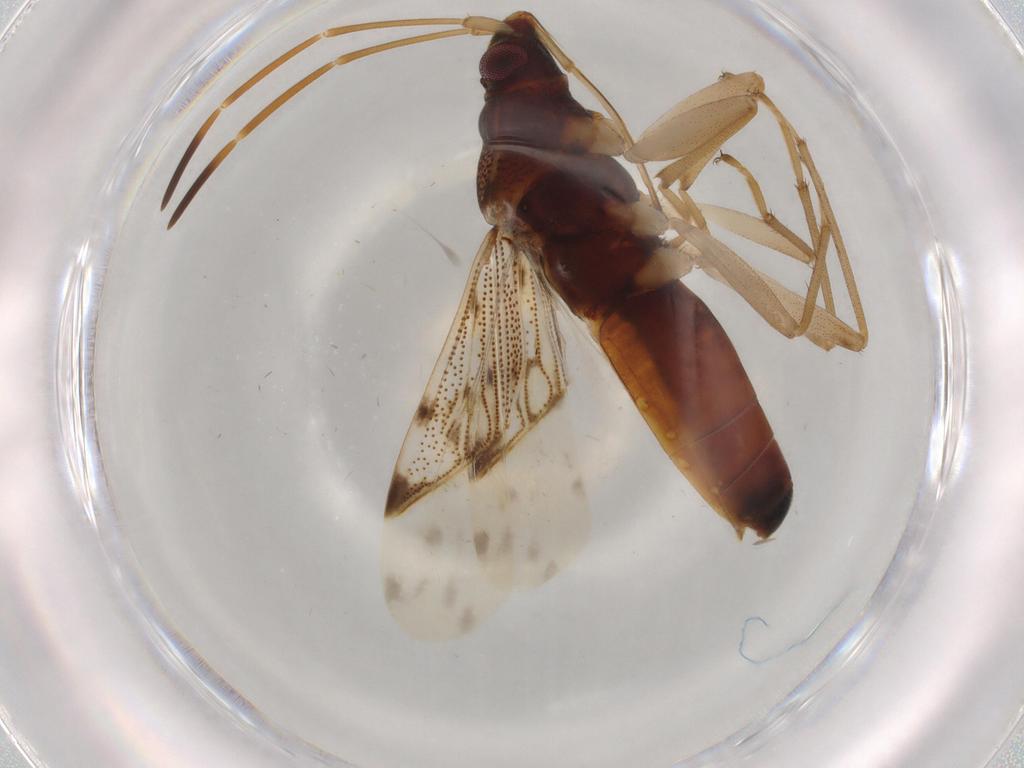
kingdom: Animalia
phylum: Arthropoda
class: Insecta
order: Hemiptera
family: Rhyparochromidae
